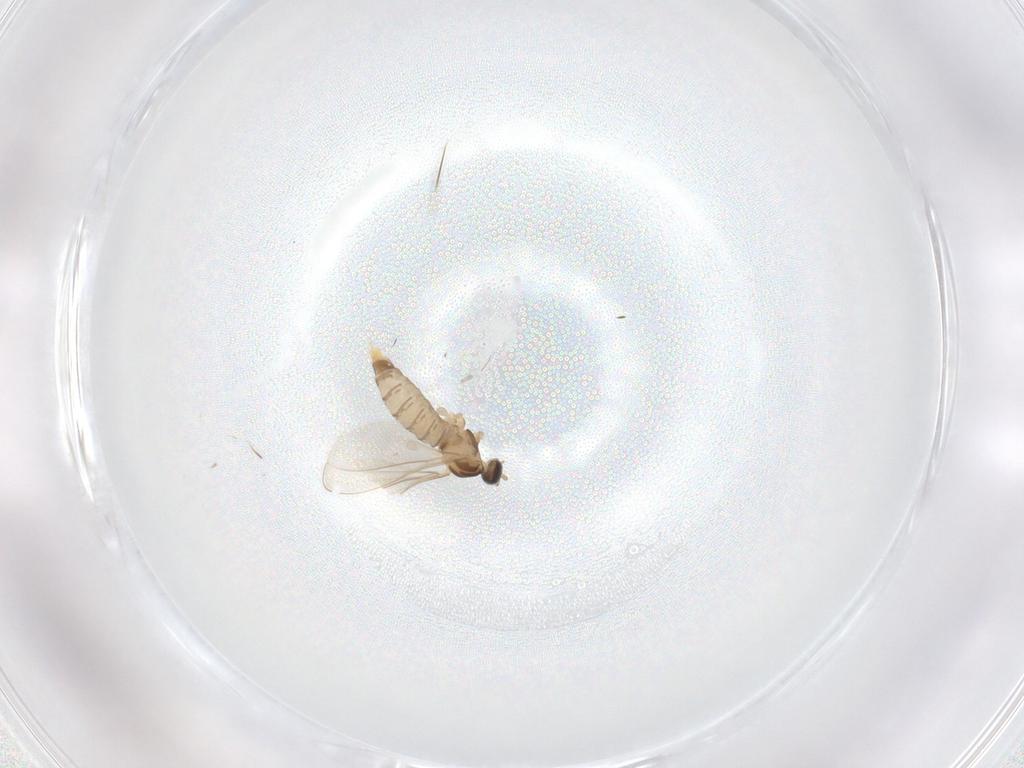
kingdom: Animalia
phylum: Arthropoda
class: Insecta
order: Diptera
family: Cecidomyiidae
